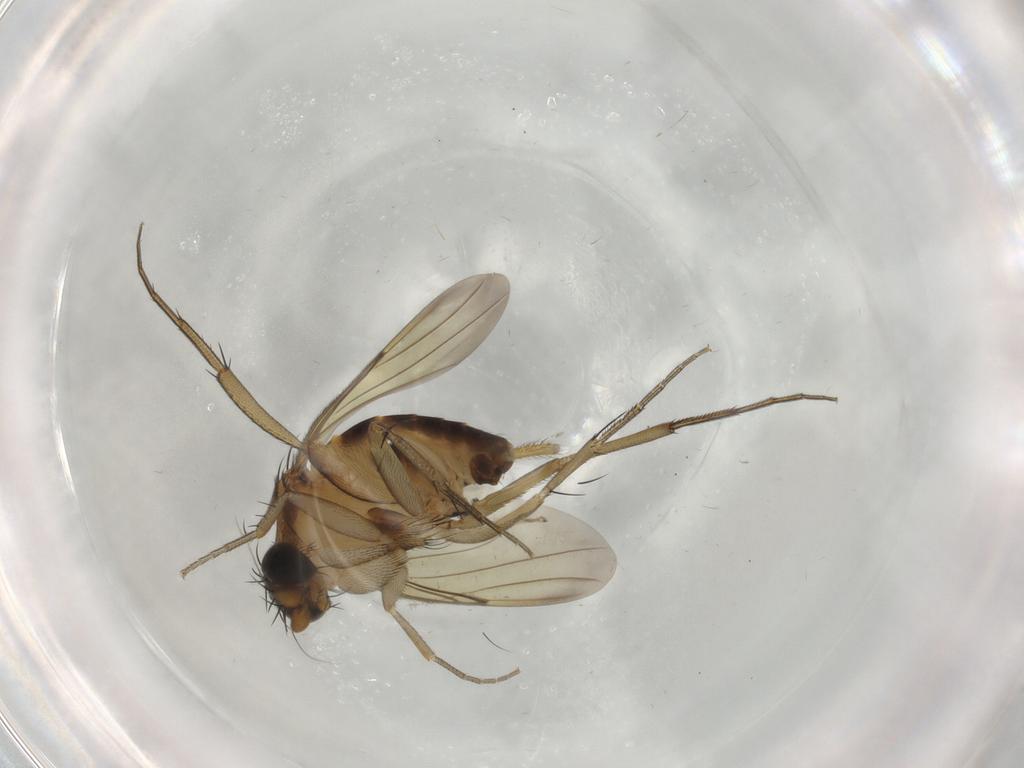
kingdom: Animalia
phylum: Arthropoda
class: Insecta
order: Diptera
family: Phoridae
